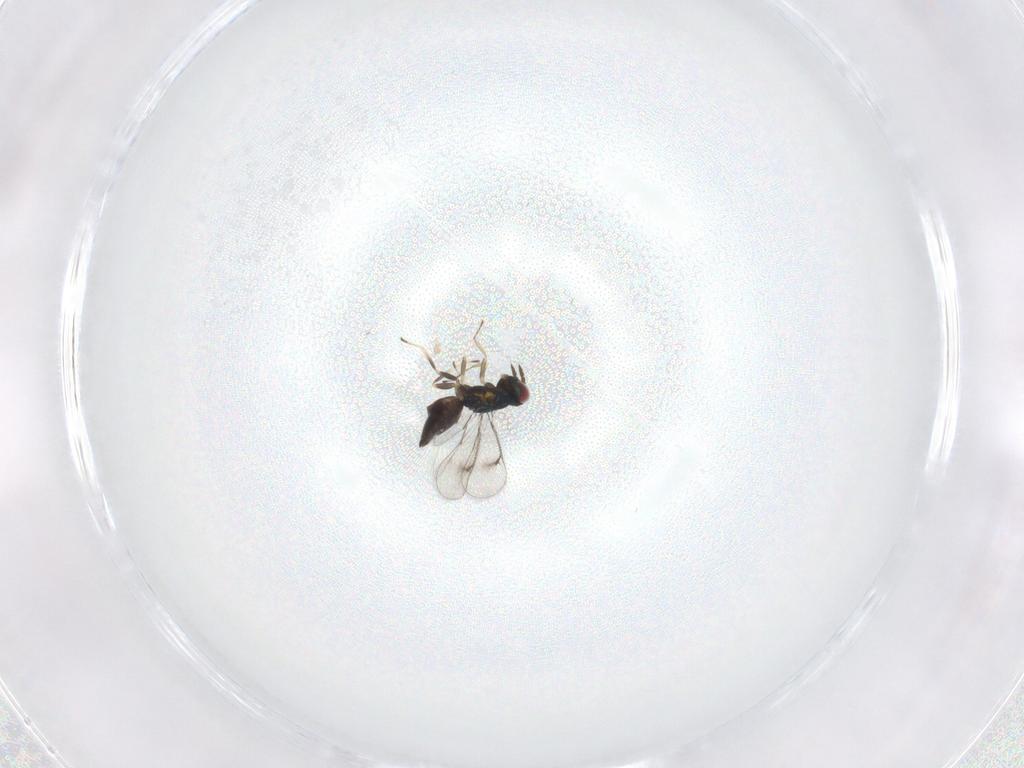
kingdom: Animalia
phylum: Arthropoda
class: Insecta
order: Hymenoptera
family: Eulophidae
